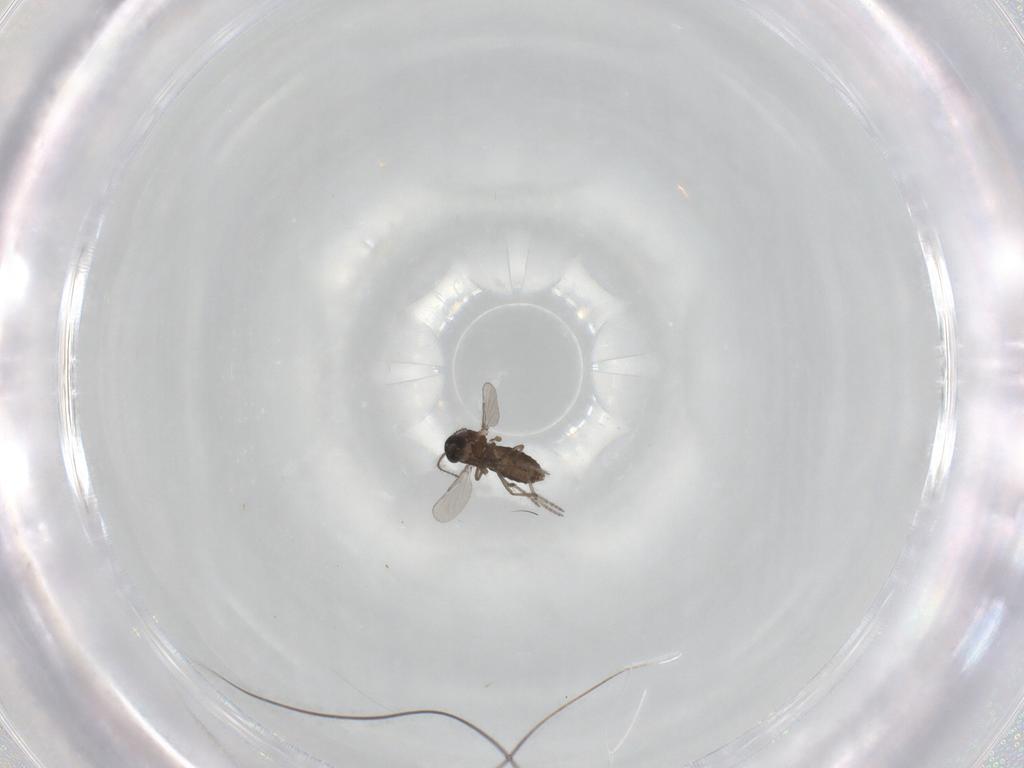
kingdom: Animalia
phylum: Arthropoda
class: Insecta
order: Diptera
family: Ceratopogonidae
